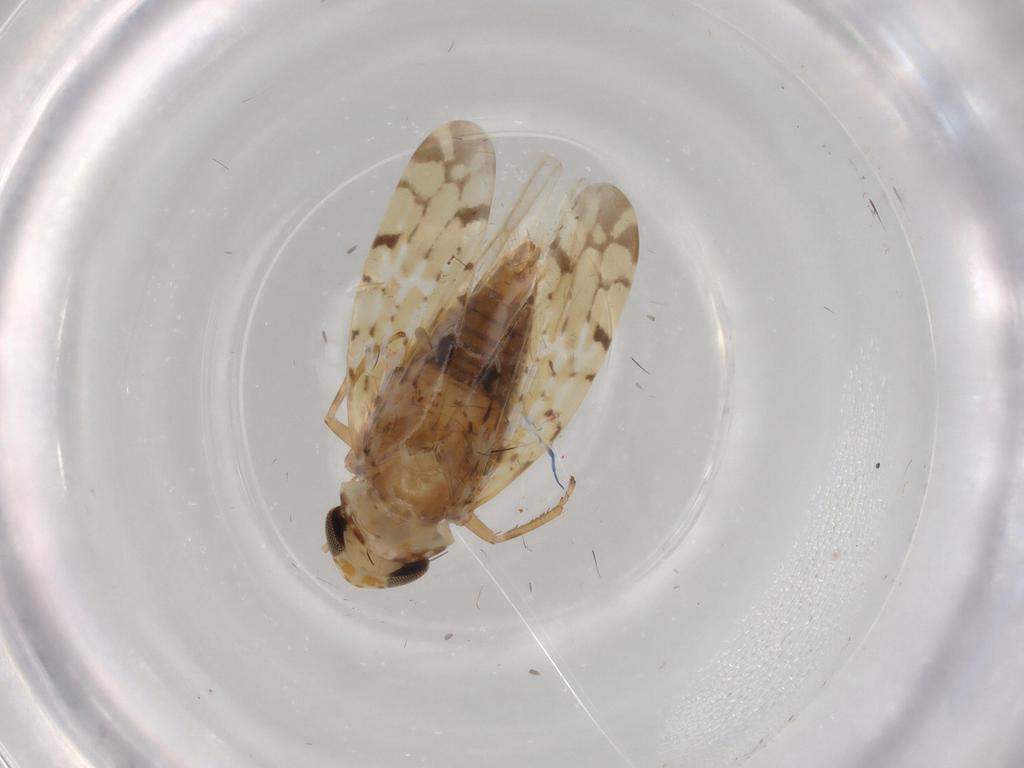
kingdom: Animalia
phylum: Arthropoda
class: Insecta
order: Hemiptera
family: Cicadellidae
